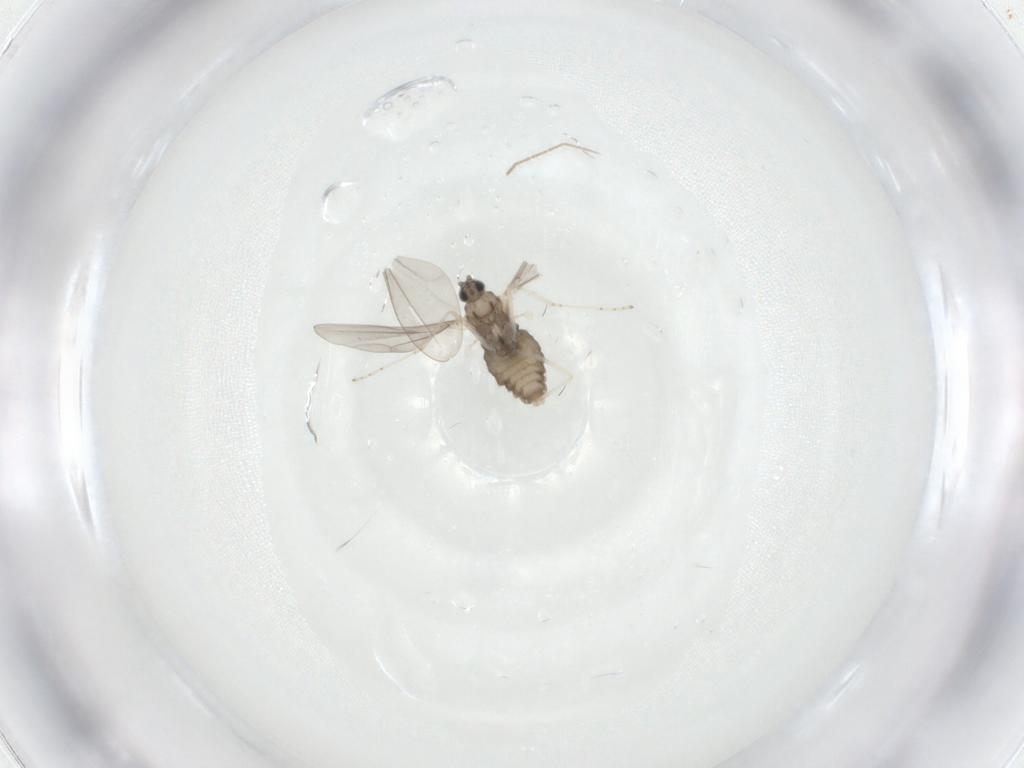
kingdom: Animalia
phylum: Arthropoda
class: Insecta
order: Diptera
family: Cecidomyiidae
